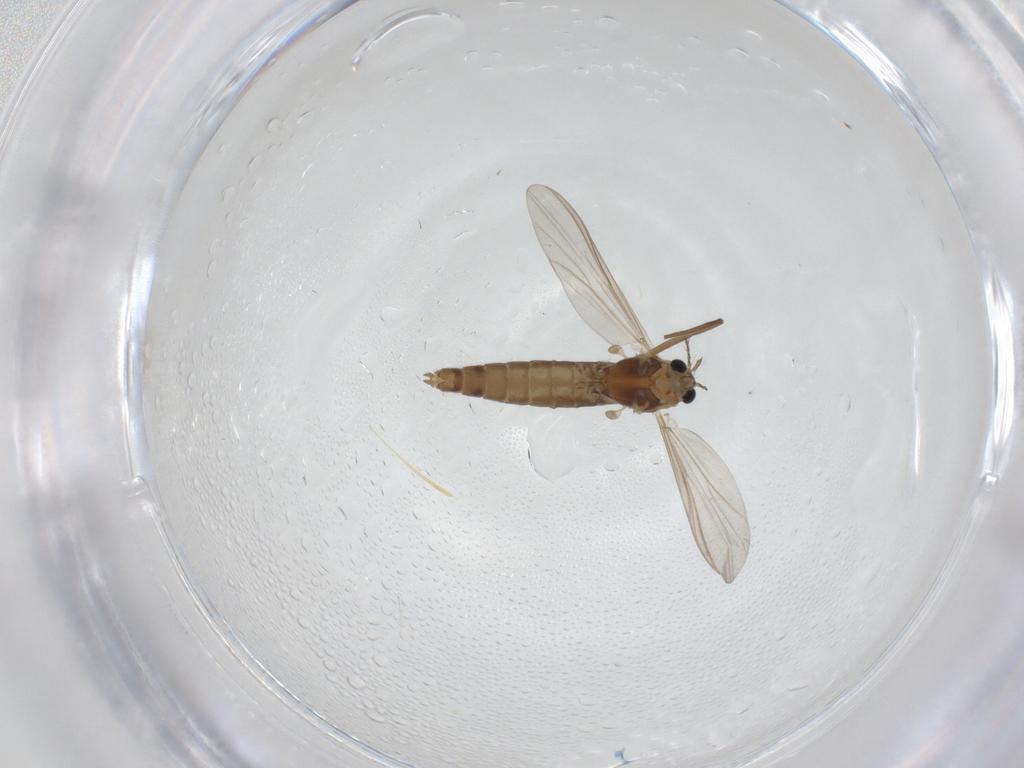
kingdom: Animalia
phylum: Arthropoda
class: Insecta
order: Diptera
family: Chironomidae
